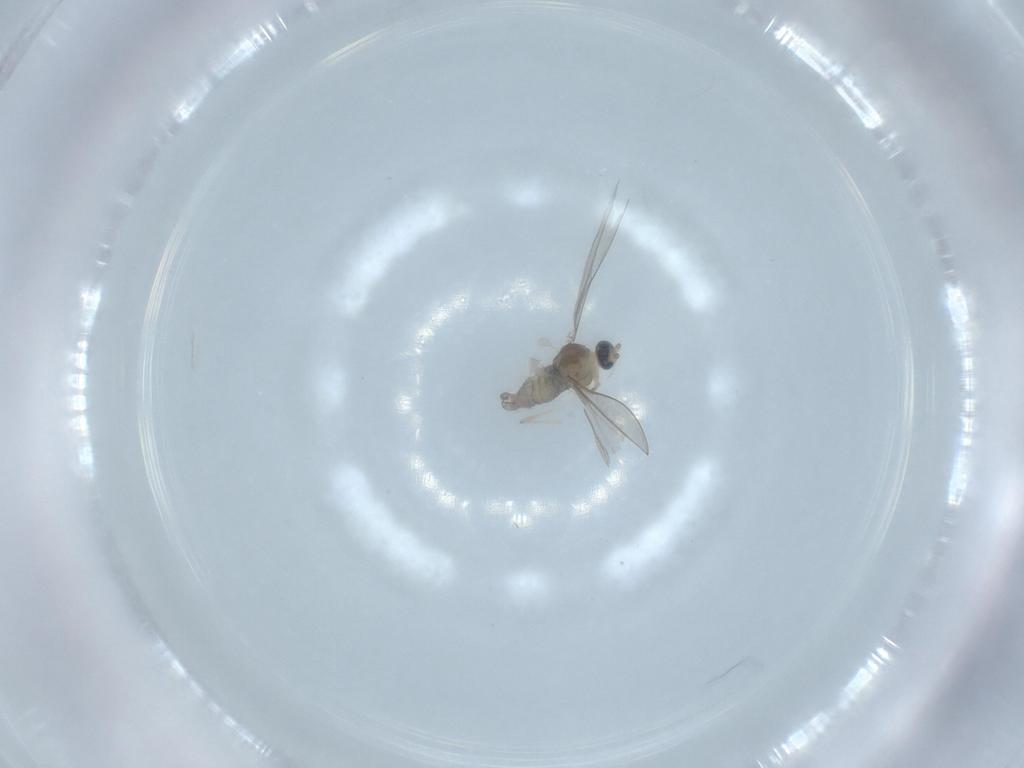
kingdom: Animalia
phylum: Arthropoda
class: Insecta
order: Diptera
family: Cecidomyiidae
